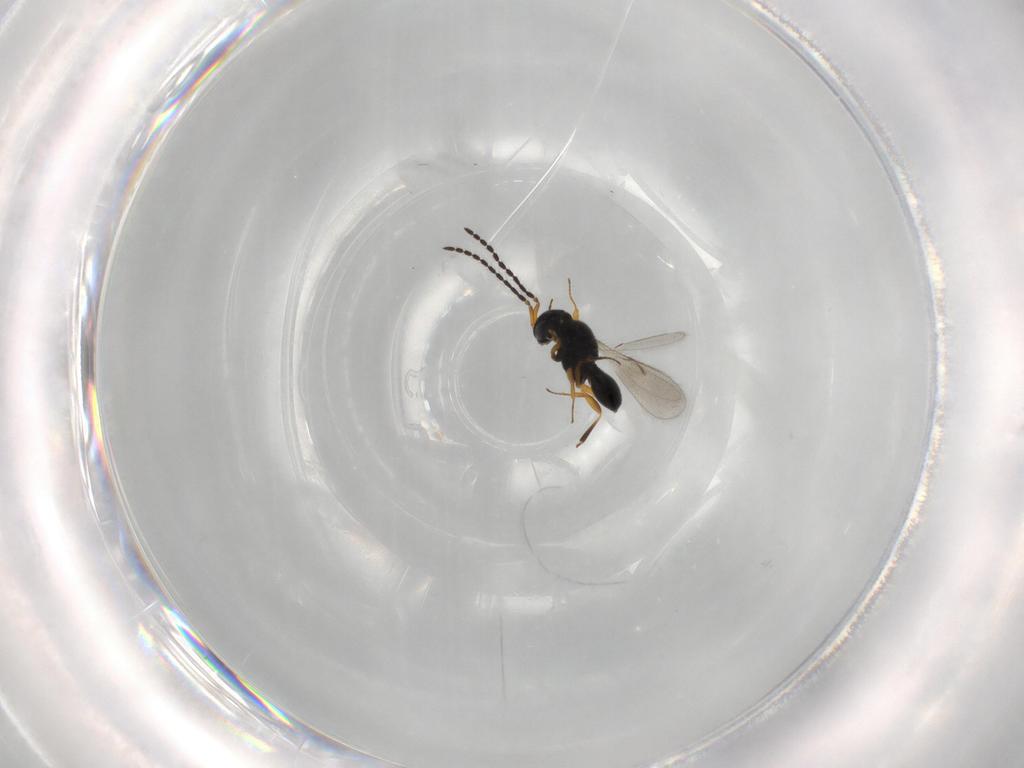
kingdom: Animalia
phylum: Arthropoda
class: Insecta
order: Hymenoptera
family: Scelionidae
